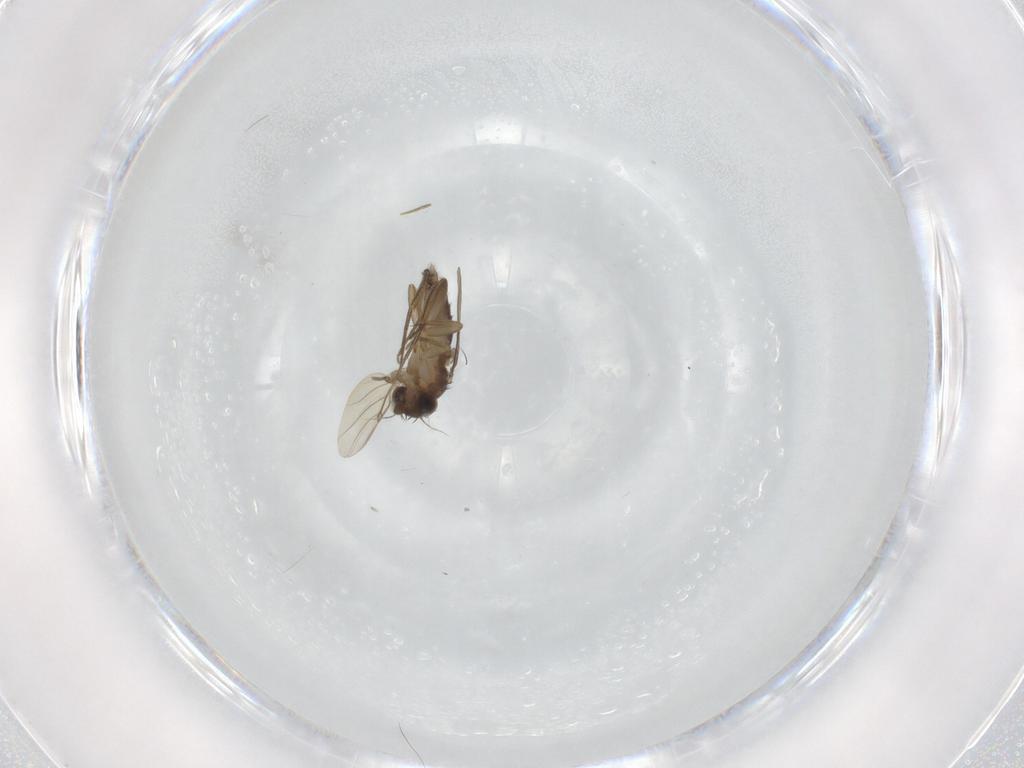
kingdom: Animalia
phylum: Arthropoda
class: Insecta
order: Diptera
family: Phoridae
